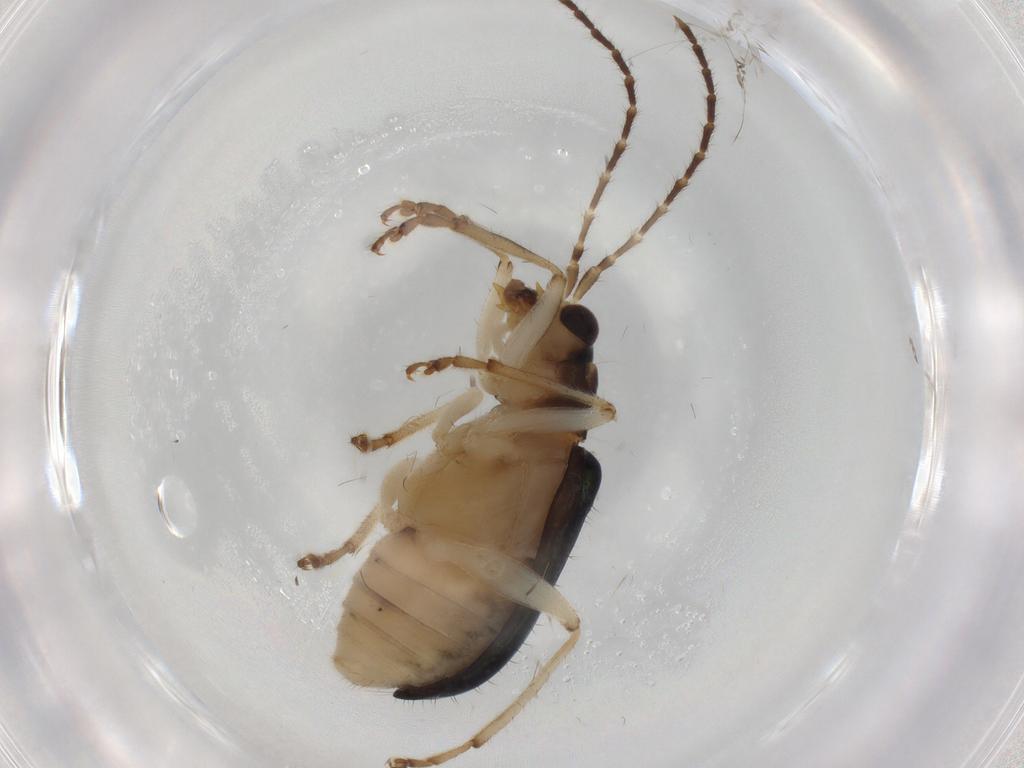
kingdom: Animalia
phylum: Arthropoda
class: Insecta
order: Coleoptera
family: Chrysomelidae
